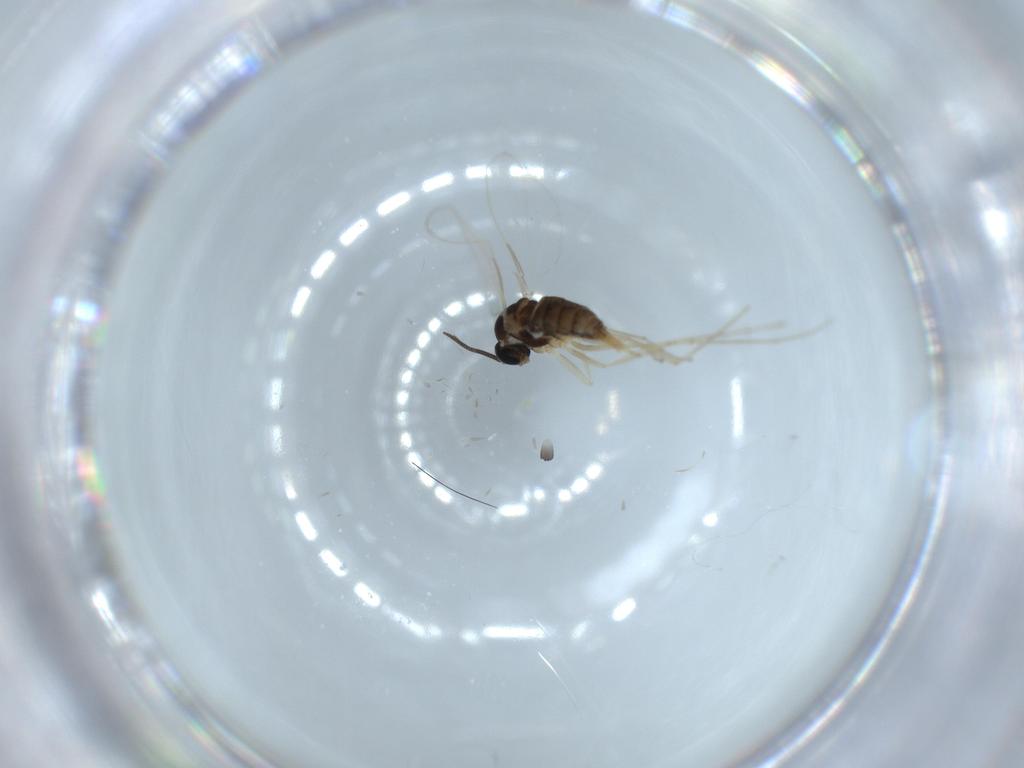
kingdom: Animalia
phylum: Arthropoda
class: Insecta
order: Diptera
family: Cecidomyiidae
